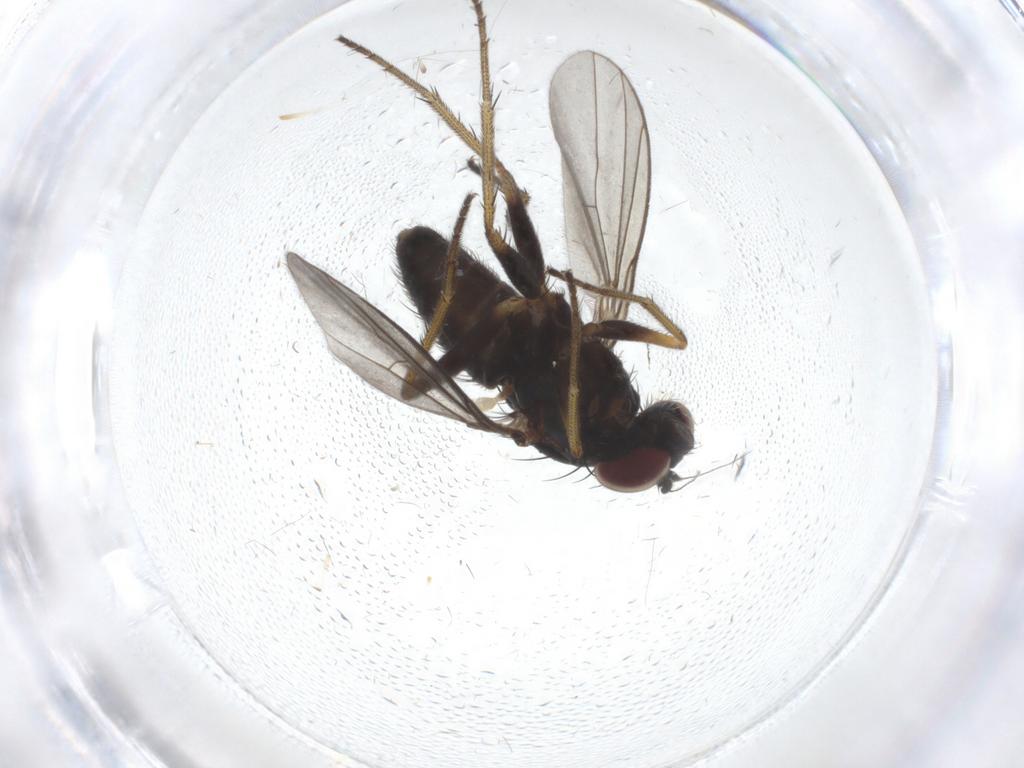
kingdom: Animalia
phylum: Arthropoda
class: Insecta
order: Diptera
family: Dolichopodidae
